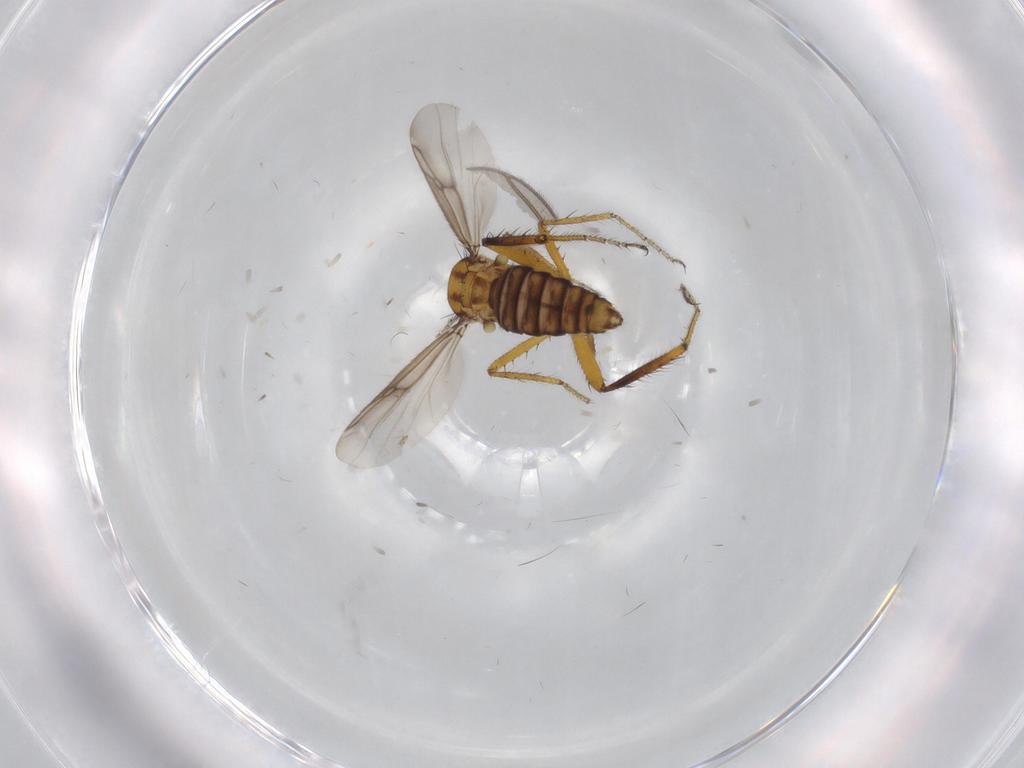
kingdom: Animalia
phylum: Arthropoda
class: Insecta
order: Diptera
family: Ceratopogonidae
